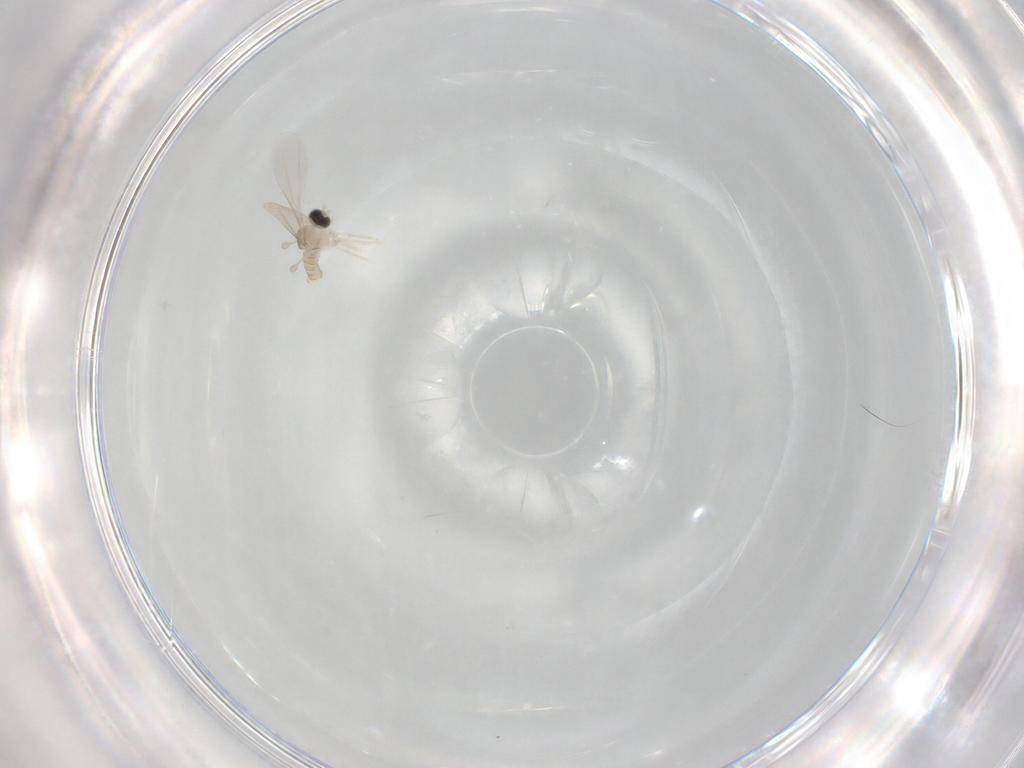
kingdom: Animalia
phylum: Arthropoda
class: Insecta
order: Diptera
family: Cecidomyiidae
